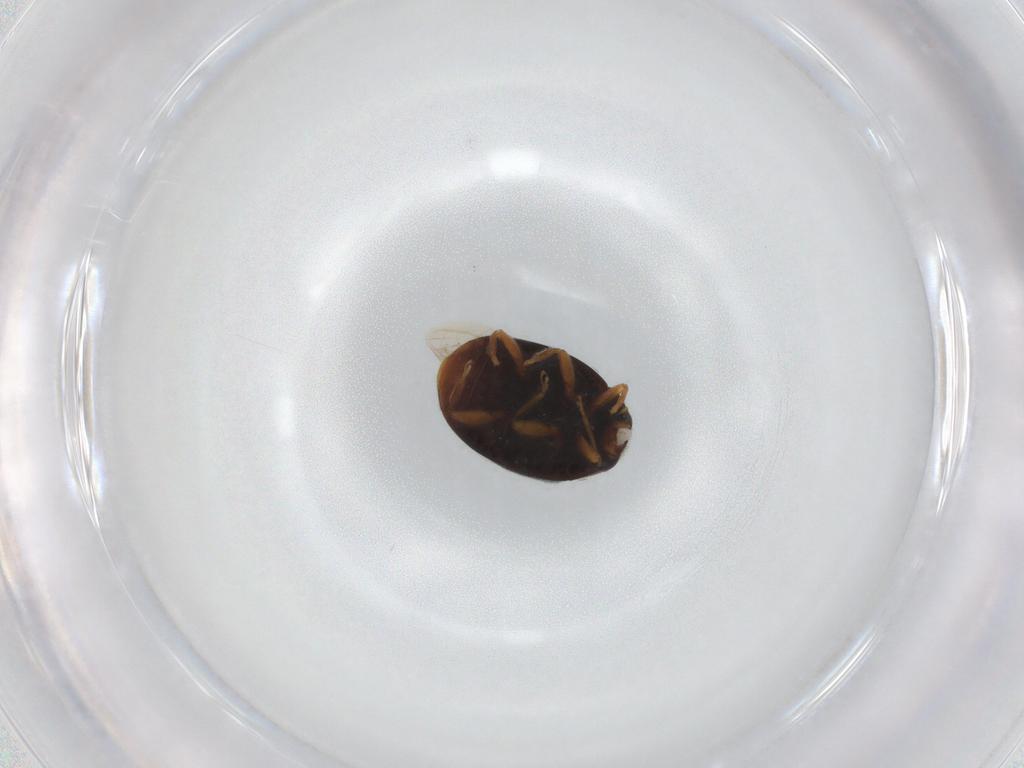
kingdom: Animalia
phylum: Arthropoda
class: Insecta
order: Coleoptera
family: Coccinellidae
